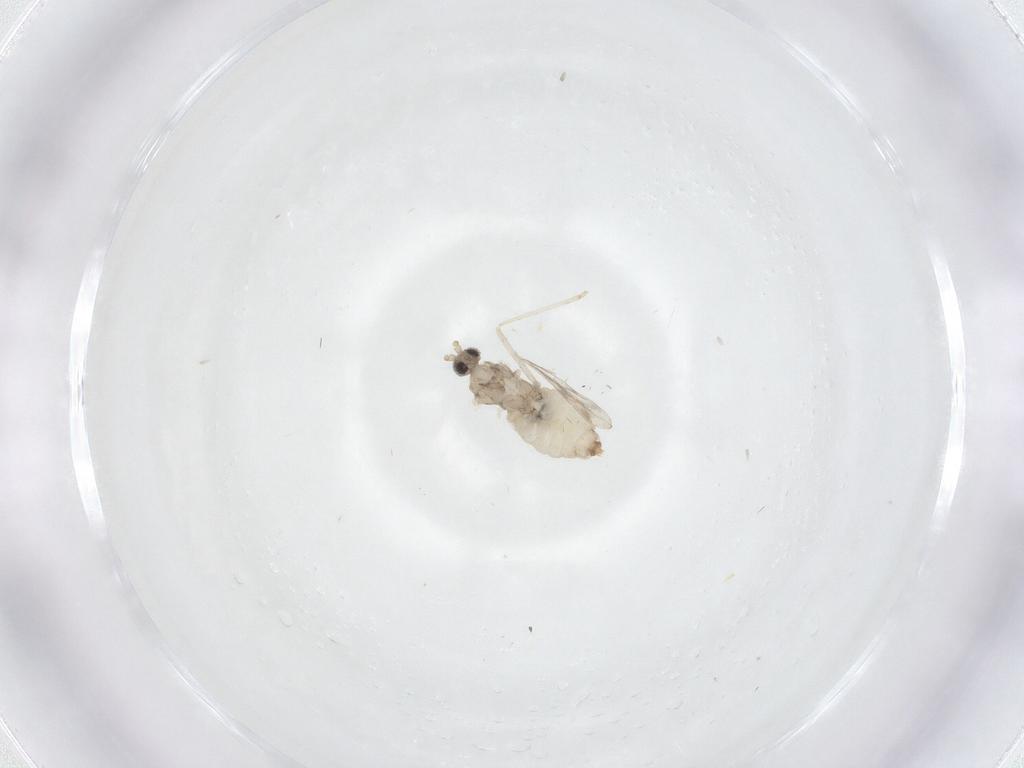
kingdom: Animalia
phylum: Arthropoda
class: Insecta
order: Diptera
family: Cecidomyiidae
